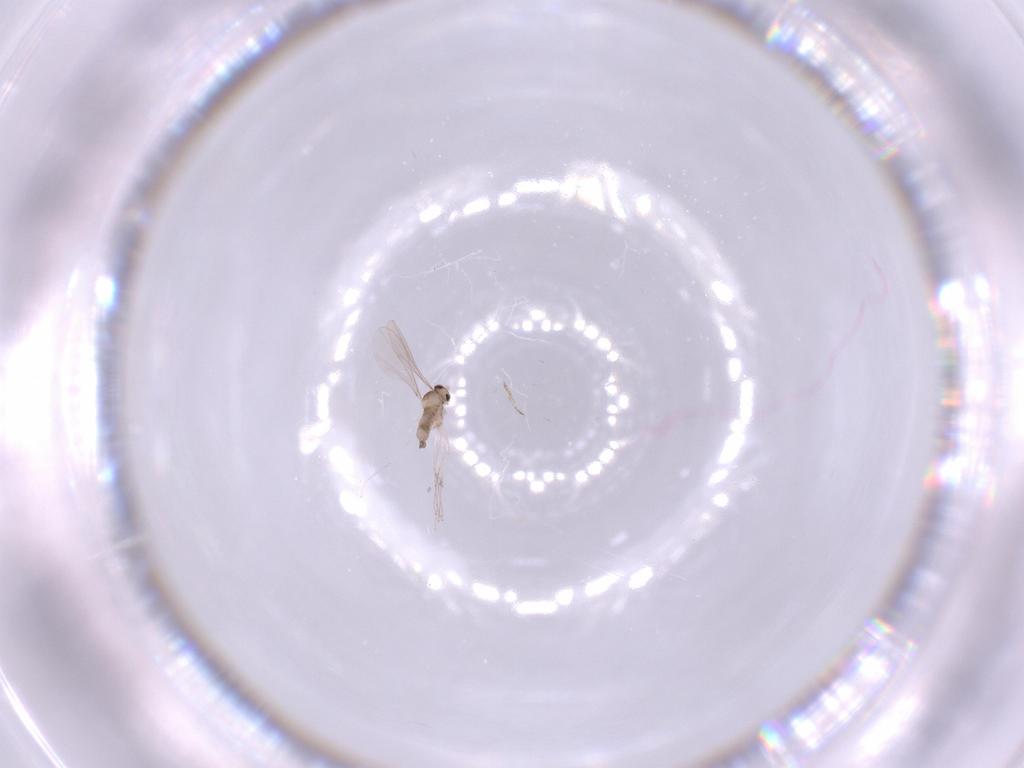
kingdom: Animalia
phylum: Arthropoda
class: Insecta
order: Diptera
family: Cecidomyiidae
